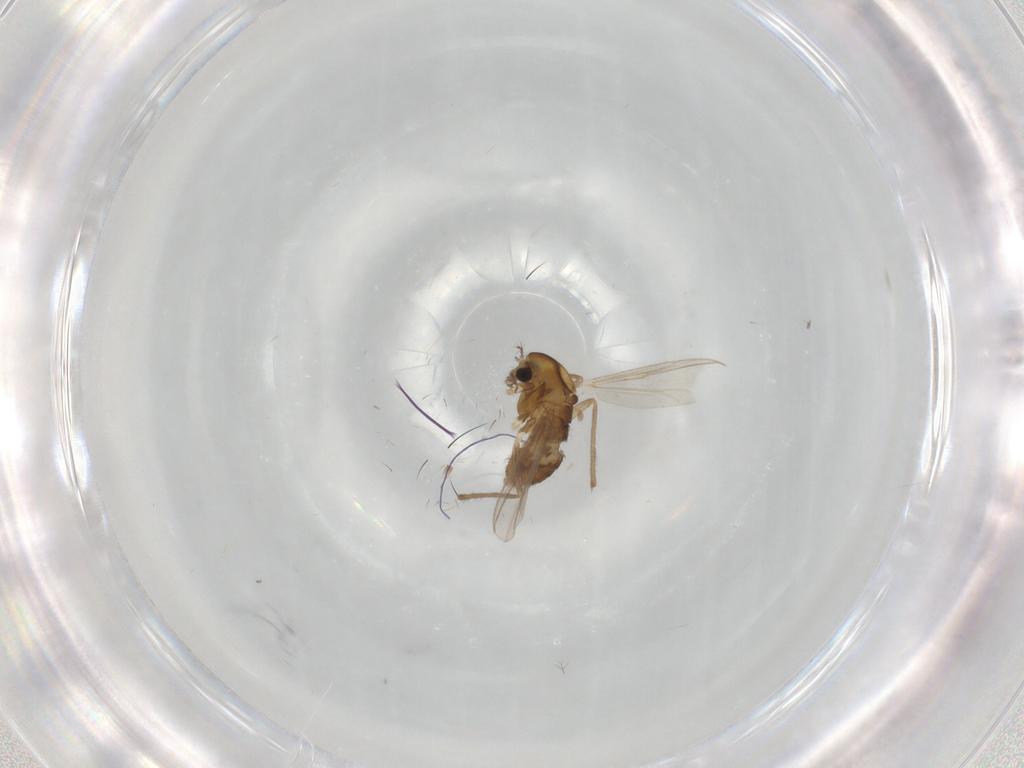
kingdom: Animalia
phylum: Arthropoda
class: Insecta
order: Diptera
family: Chironomidae
